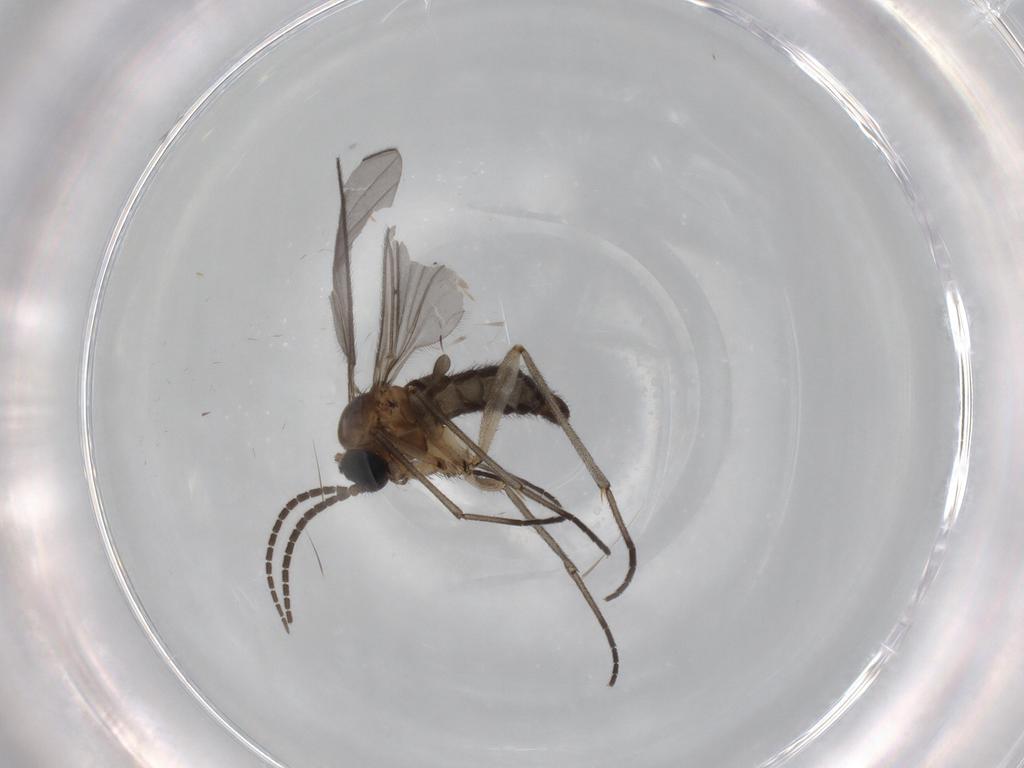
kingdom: Animalia
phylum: Arthropoda
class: Insecta
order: Diptera
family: Sciaridae
